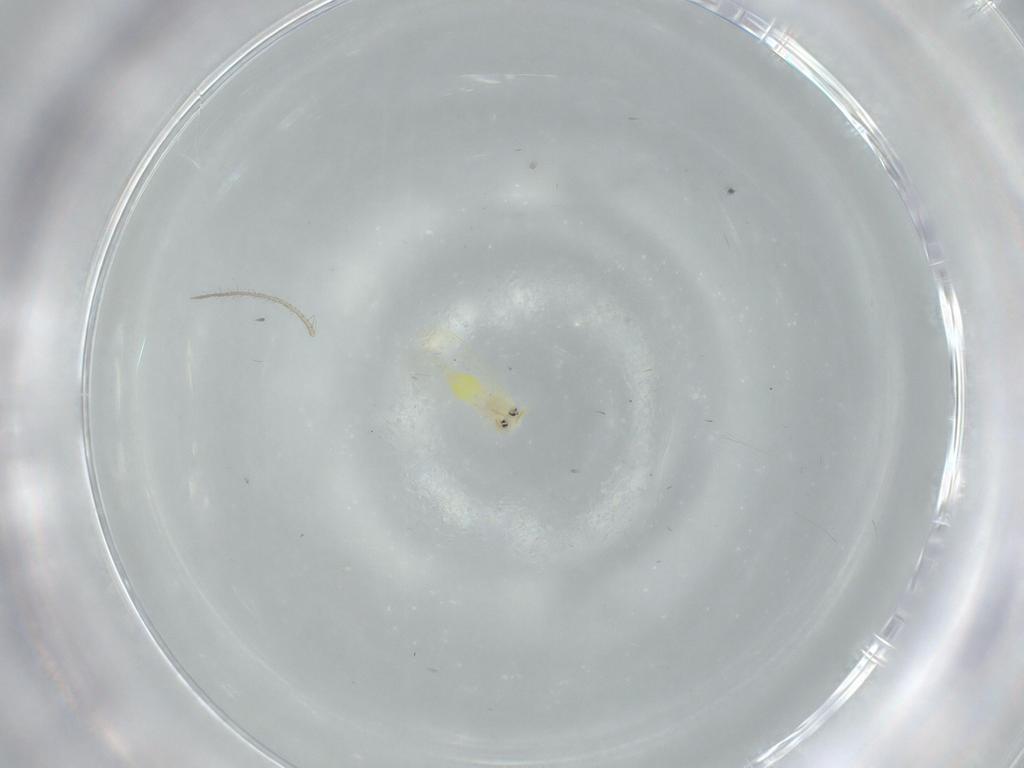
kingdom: Animalia
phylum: Arthropoda
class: Insecta
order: Hemiptera
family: Aleyrodidae
